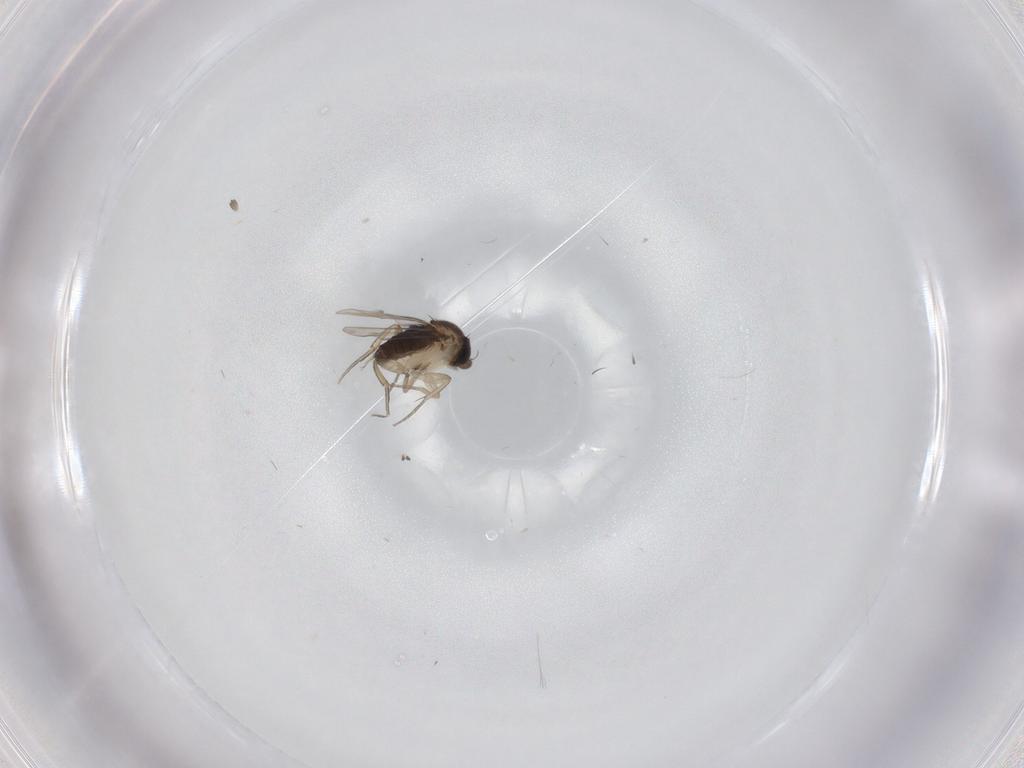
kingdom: Animalia
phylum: Arthropoda
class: Insecta
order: Diptera
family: Phoridae
